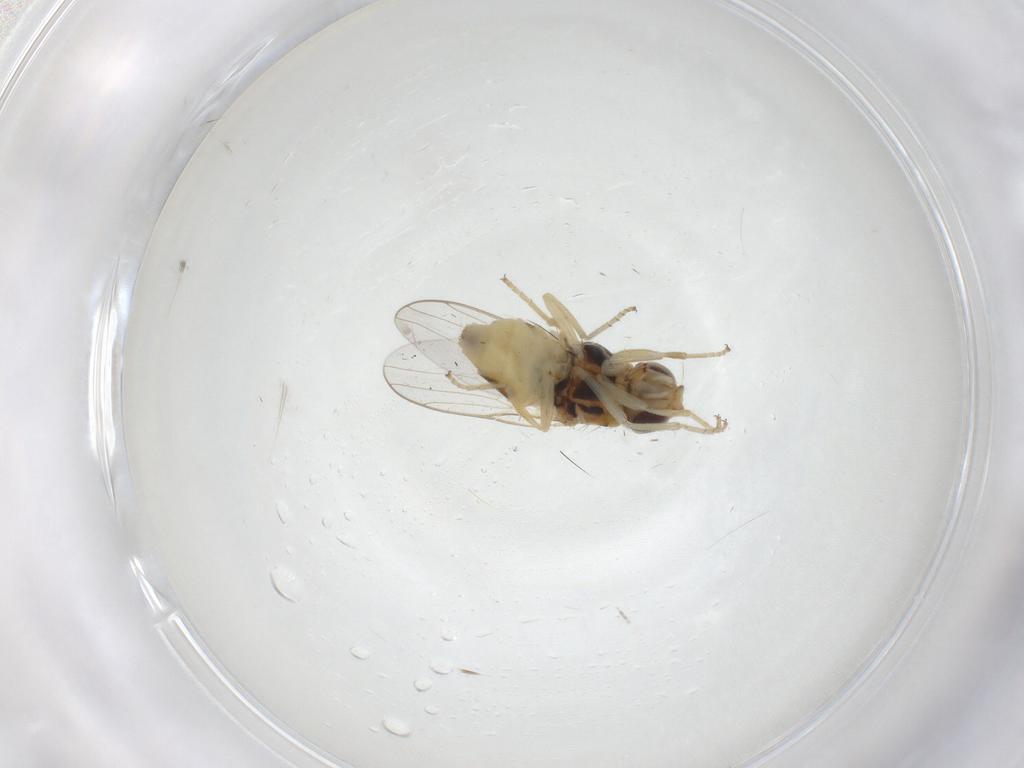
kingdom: Animalia
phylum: Arthropoda
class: Insecta
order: Diptera
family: Chloropidae
